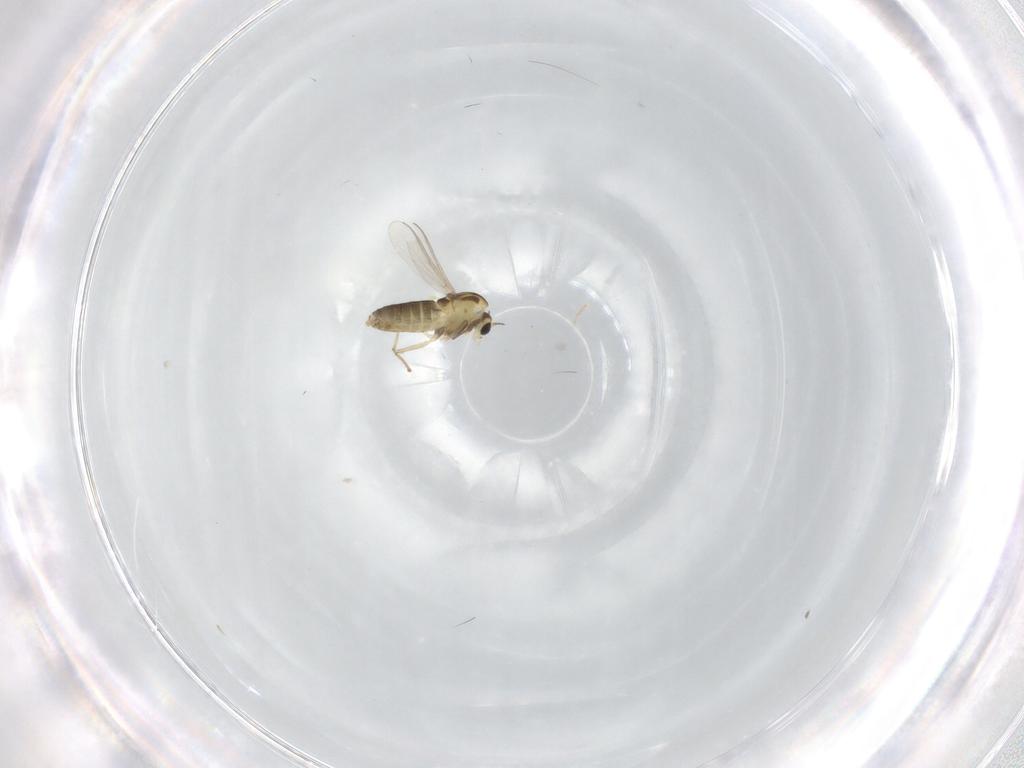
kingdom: Animalia
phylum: Arthropoda
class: Insecta
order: Diptera
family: Chironomidae
